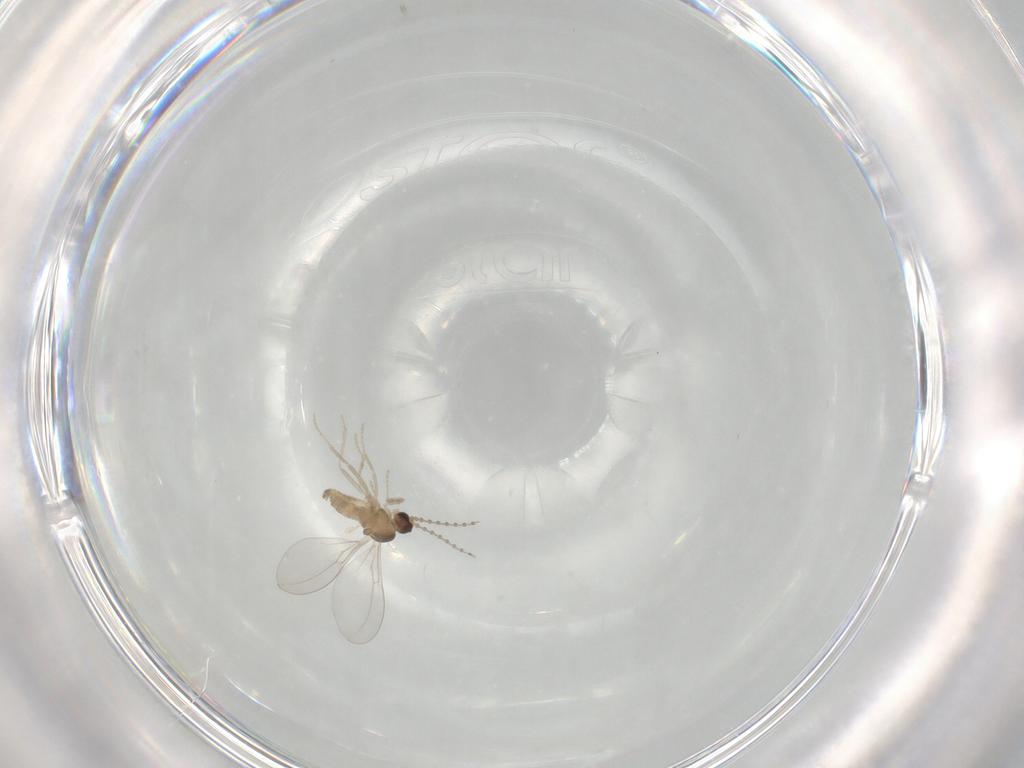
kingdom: Animalia
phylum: Arthropoda
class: Insecta
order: Diptera
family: Cecidomyiidae
